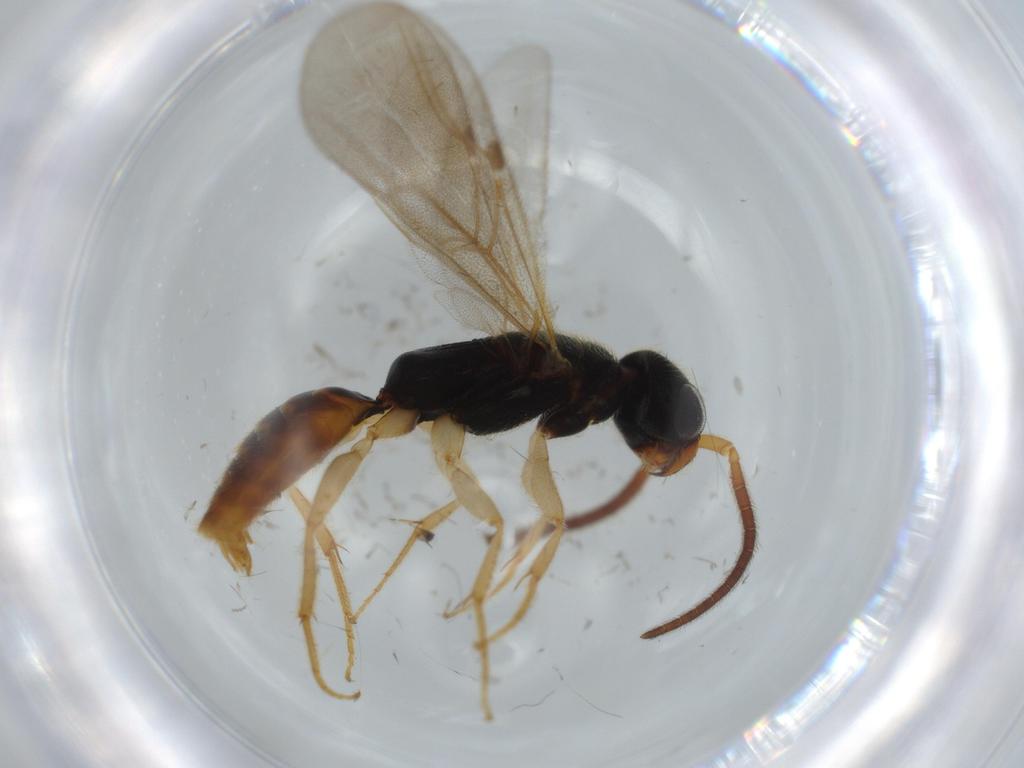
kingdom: Animalia
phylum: Arthropoda
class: Insecta
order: Hymenoptera
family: Bethylidae
